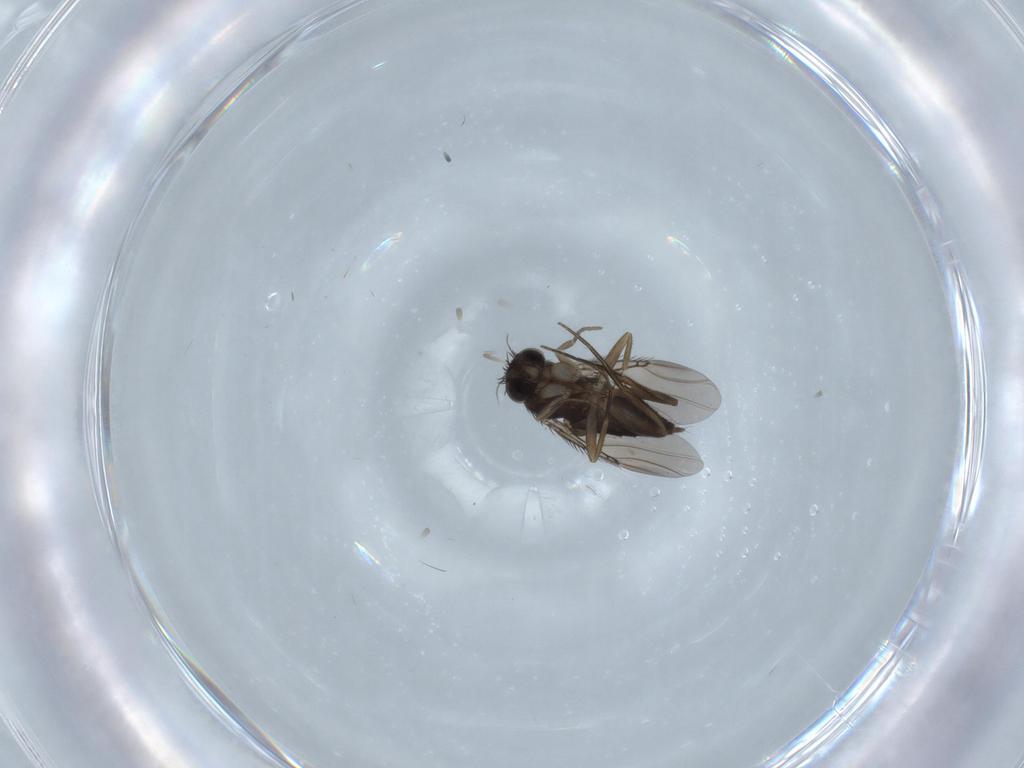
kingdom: Animalia
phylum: Arthropoda
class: Insecta
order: Diptera
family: Phoridae
